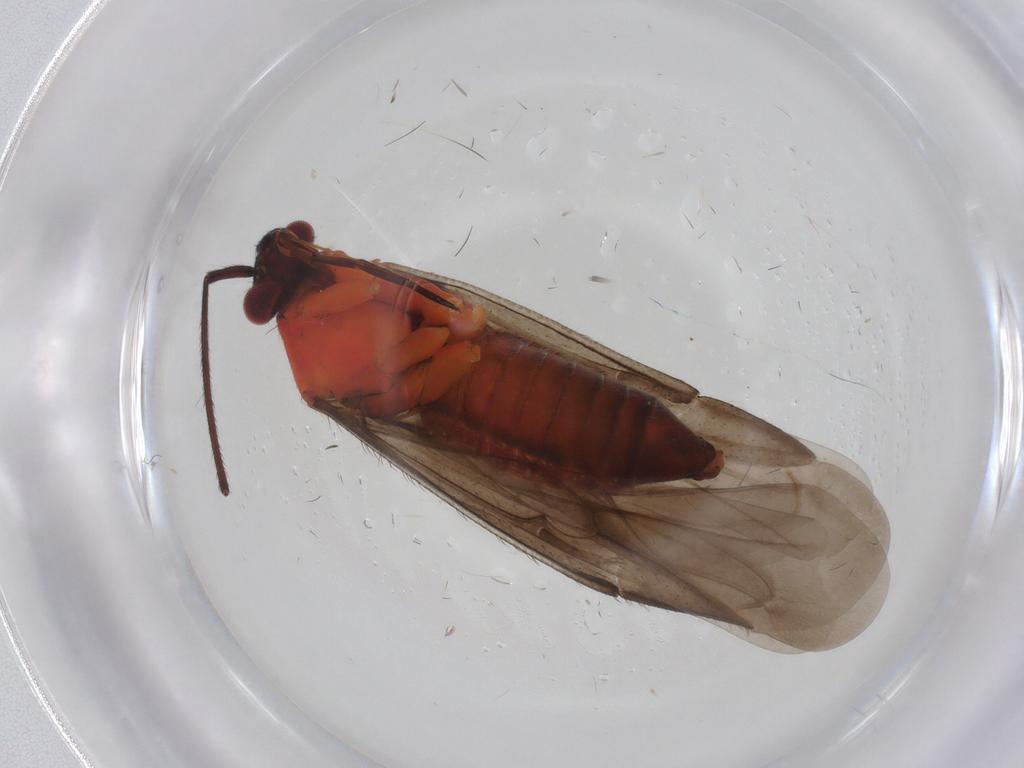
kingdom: Animalia
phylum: Arthropoda
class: Insecta
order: Hemiptera
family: Miridae
